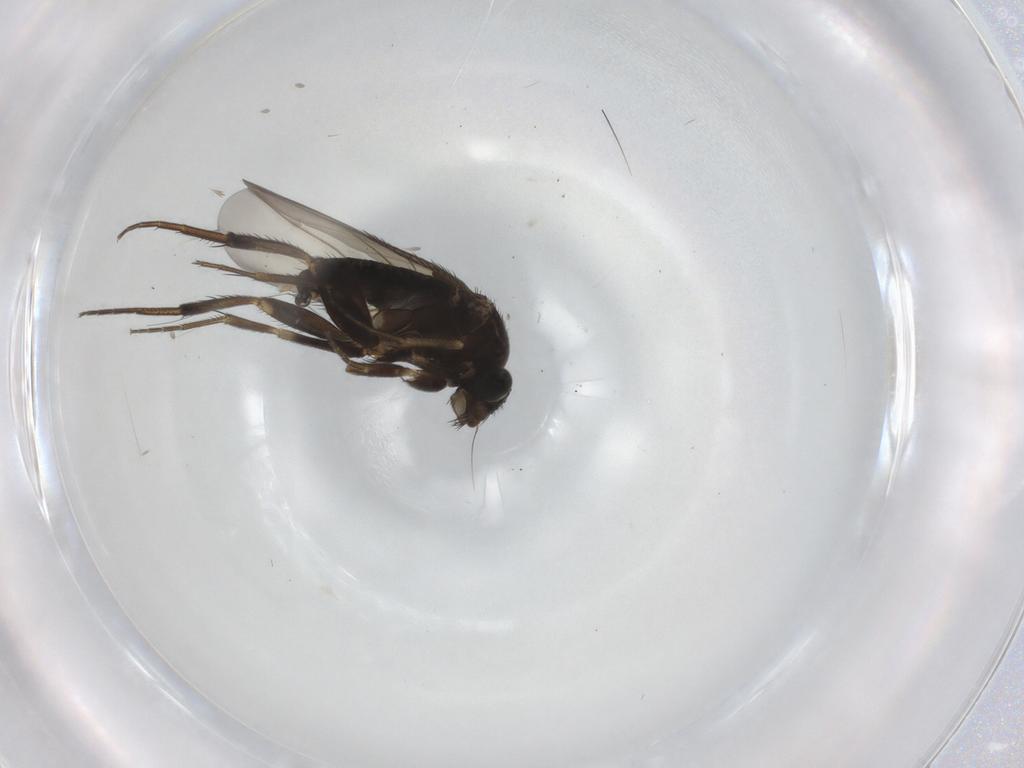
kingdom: Animalia
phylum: Arthropoda
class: Insecta
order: Diptera
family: Phoridae
